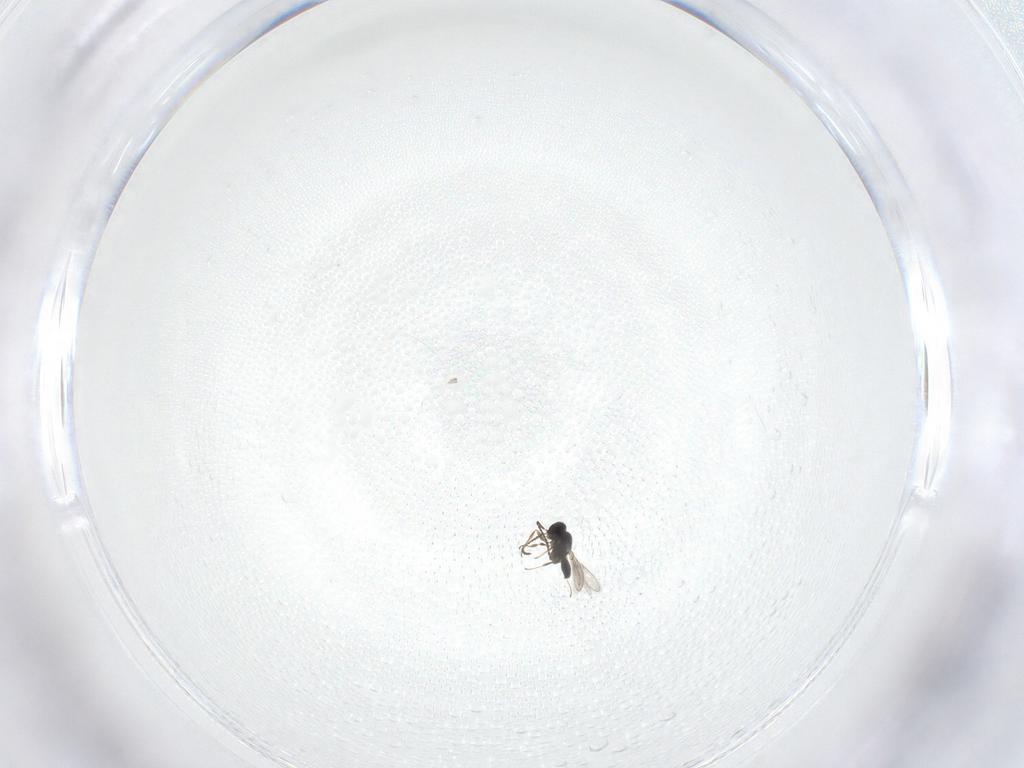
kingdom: Animalia
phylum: Arthropoda
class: Insecta
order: Hymenoptera
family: Scelionidae
